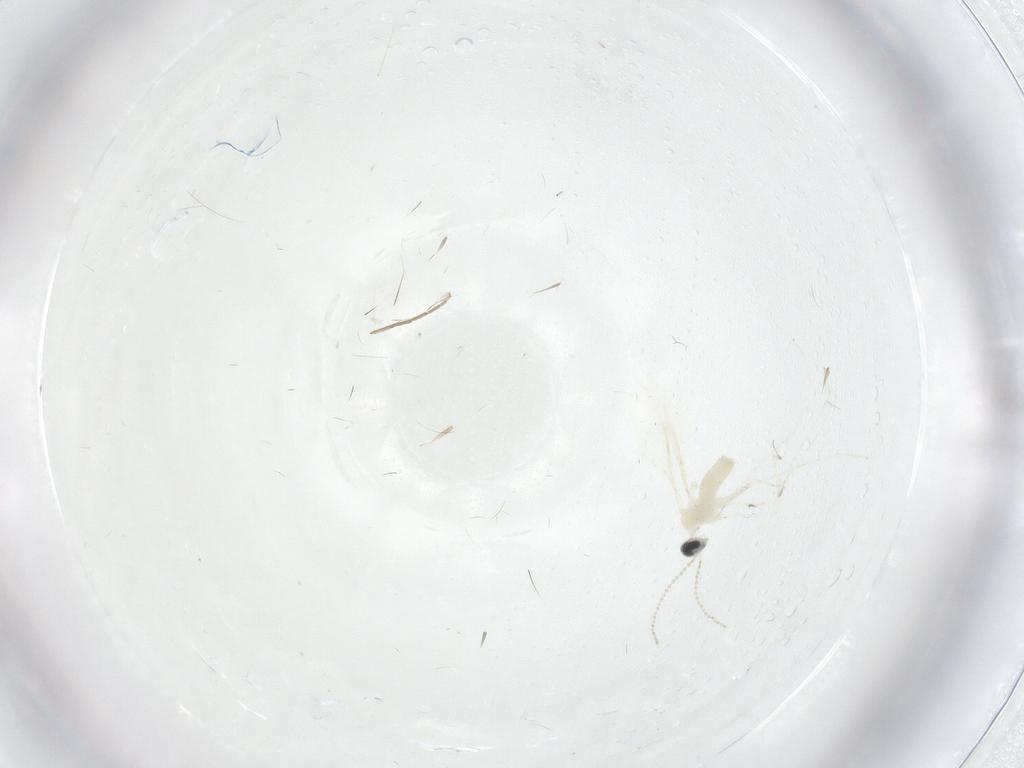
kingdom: Animalia
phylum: Arthropoda
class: Insecta
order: Diptera
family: Cecidomyiidae
